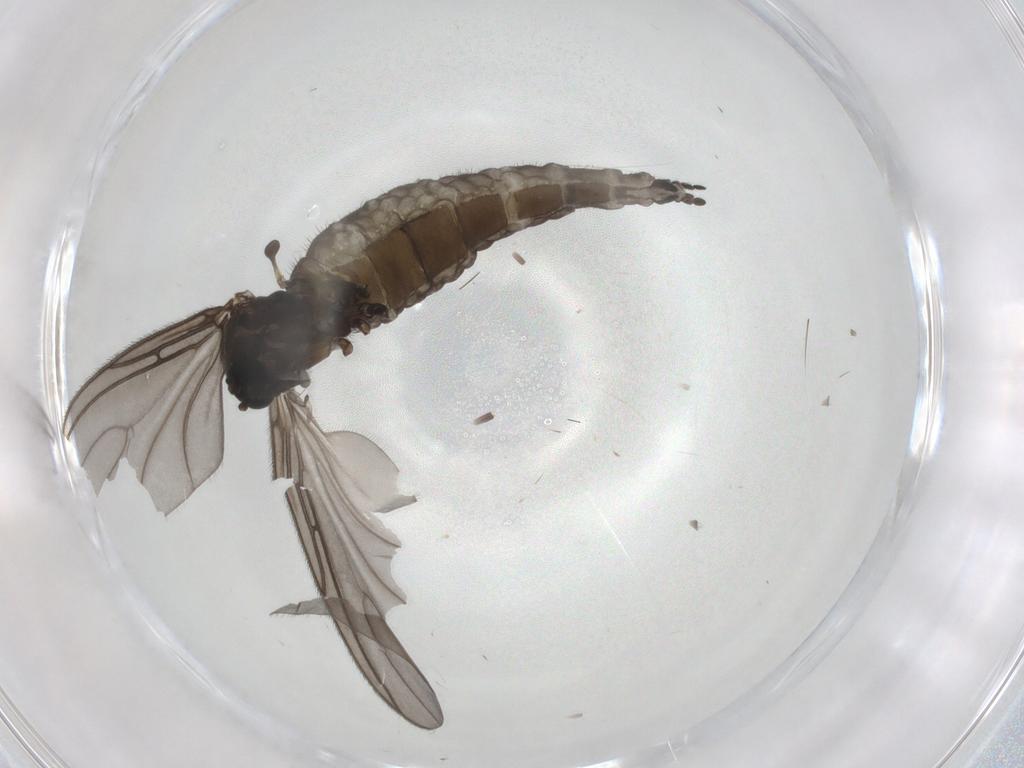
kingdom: Animalia
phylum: Arthropoda
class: Insecta
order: Diptera
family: Sciaridae
